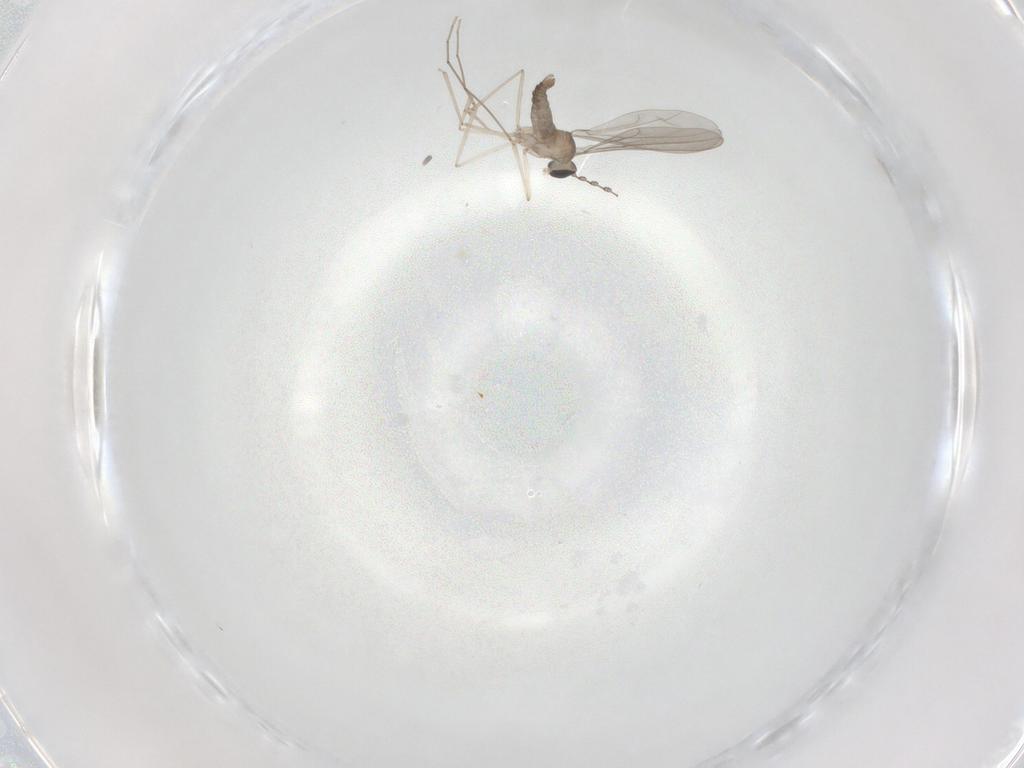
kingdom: Animalia
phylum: Arthropoda
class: Insecta
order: Diptera
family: Cecidomyiidae
